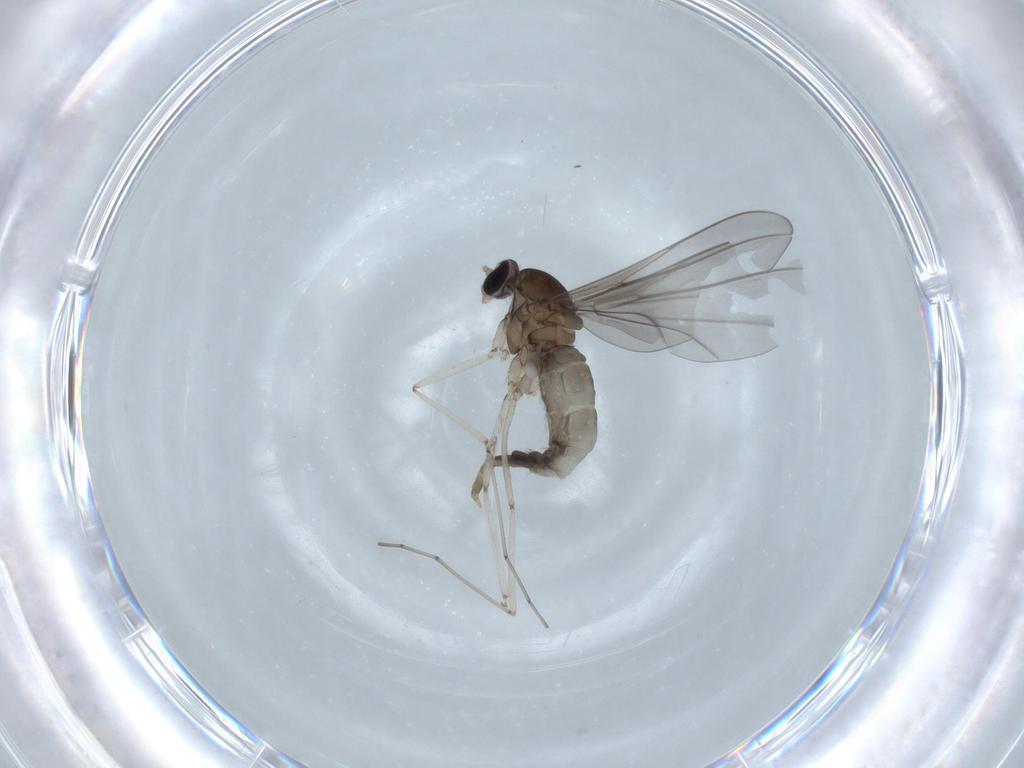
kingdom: Animalia
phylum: Arthropoda
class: Insecta
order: Diptera
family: Cecidomyiidae
